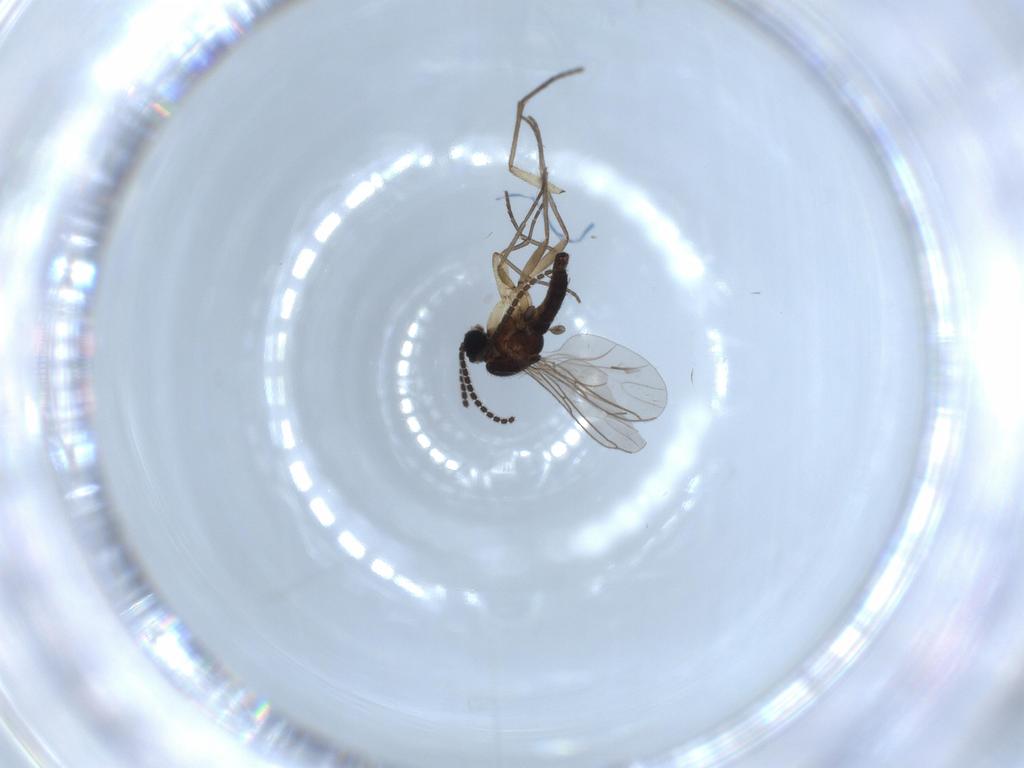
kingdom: Animalia
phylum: Arthropoda
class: Insecta
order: Diptera
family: Sciaridae
